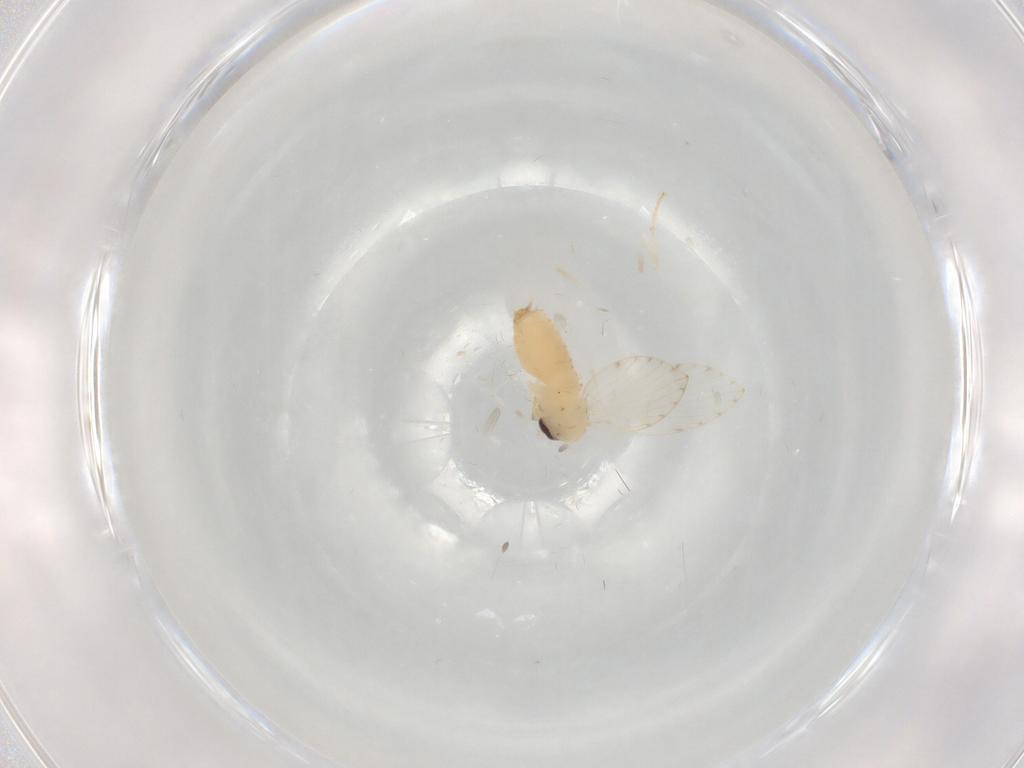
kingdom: Animalia
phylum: Arthropoda
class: Insecta
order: Diptera
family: Psychodidae
